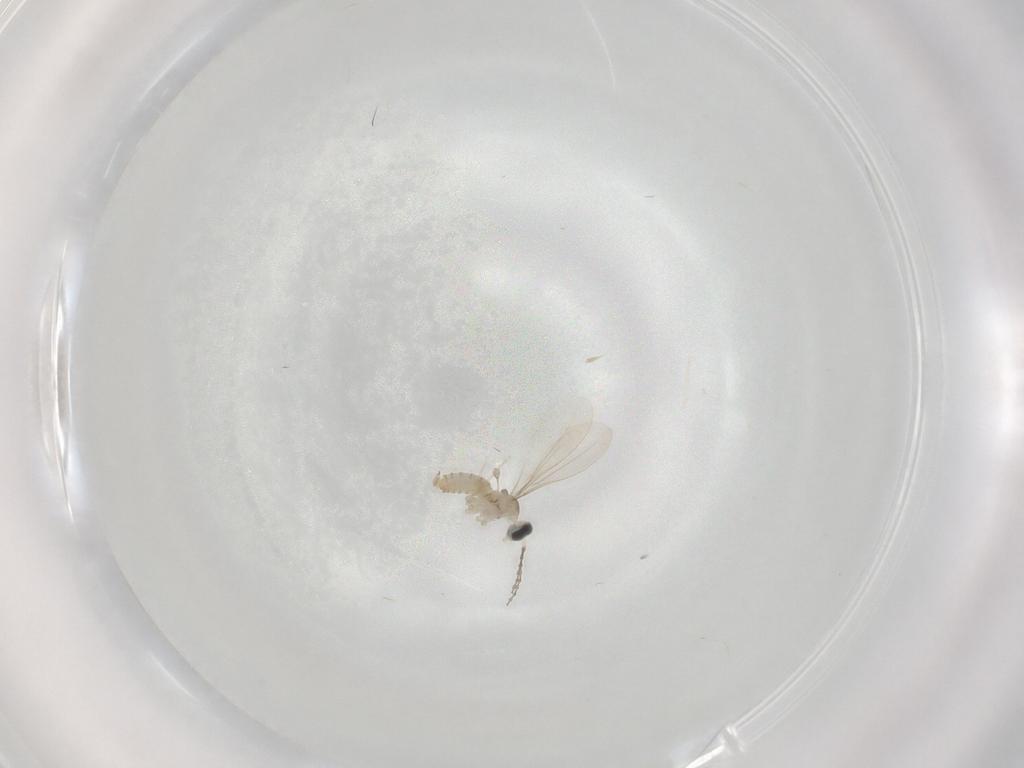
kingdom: Animalia
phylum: Arthropoda
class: Insecta
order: Diptera
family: Cecidomyiidae
